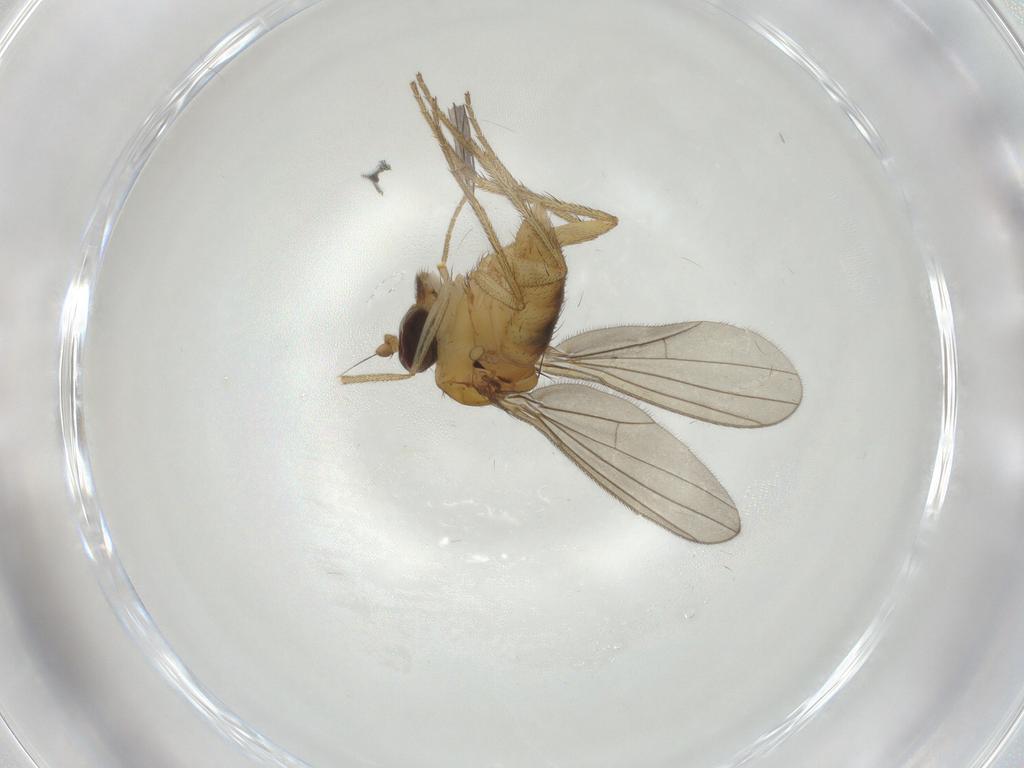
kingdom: Animalia
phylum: Arthropoda
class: Insecta
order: Diptera
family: Dolichopodidae
